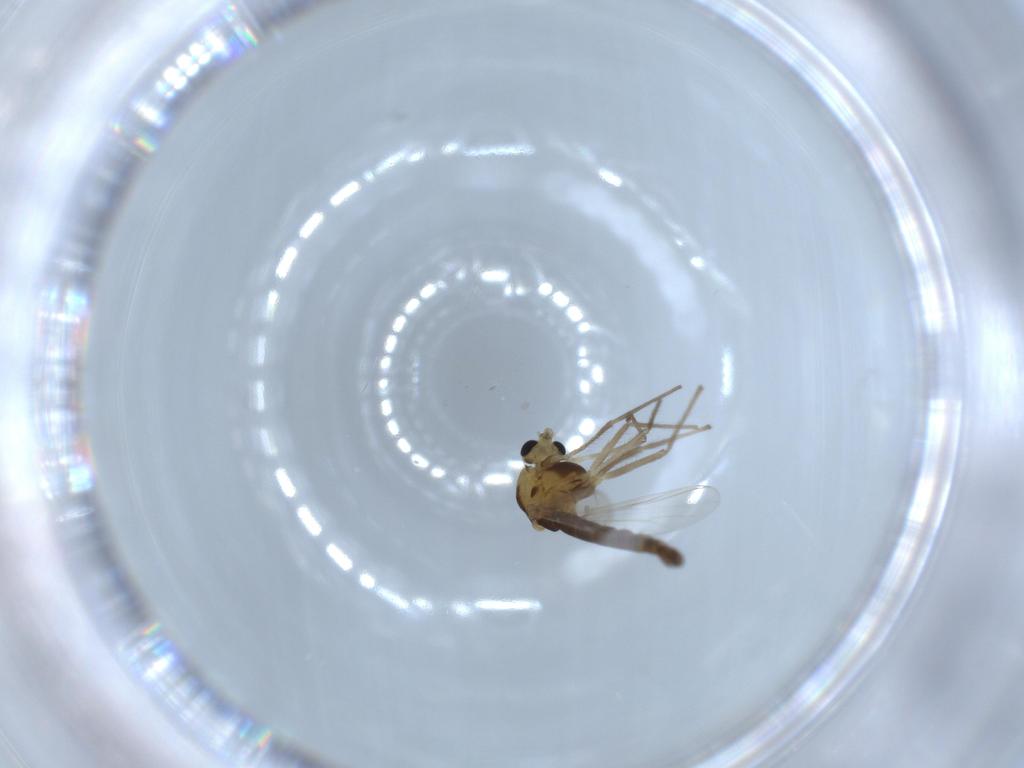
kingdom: Animalia
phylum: Arthropoda
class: Insecta
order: Diptera
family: Chironomidae
